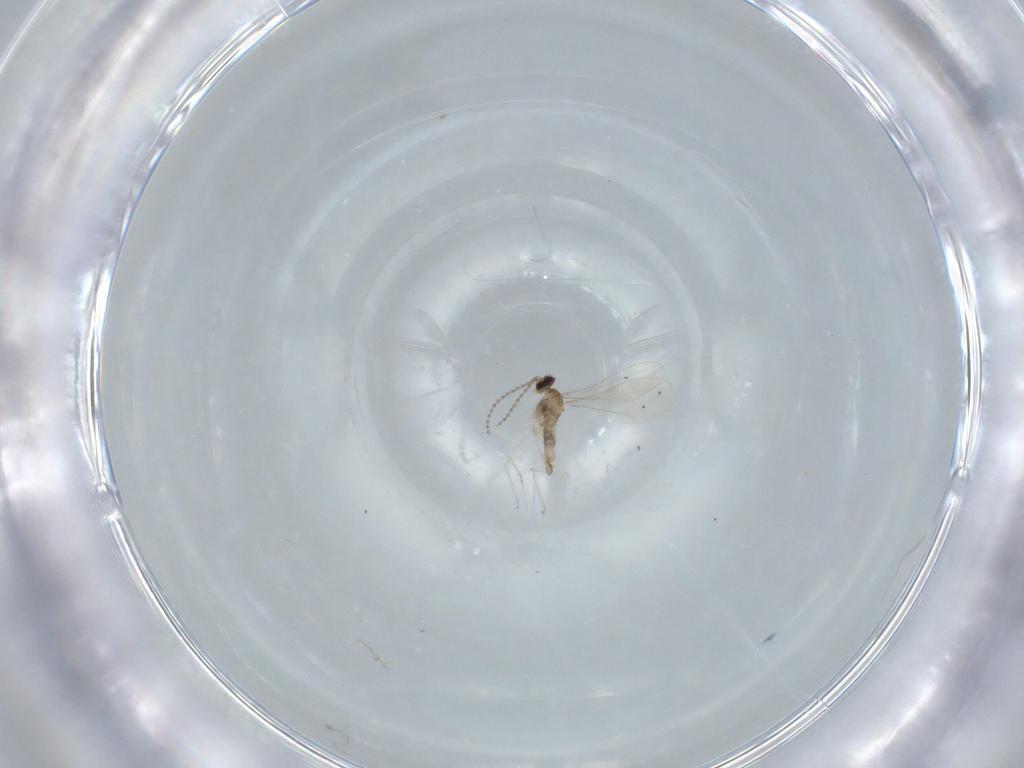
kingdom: Animalia
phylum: Arthropoda
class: Insecta
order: Diptera
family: Cecidomyiidae
